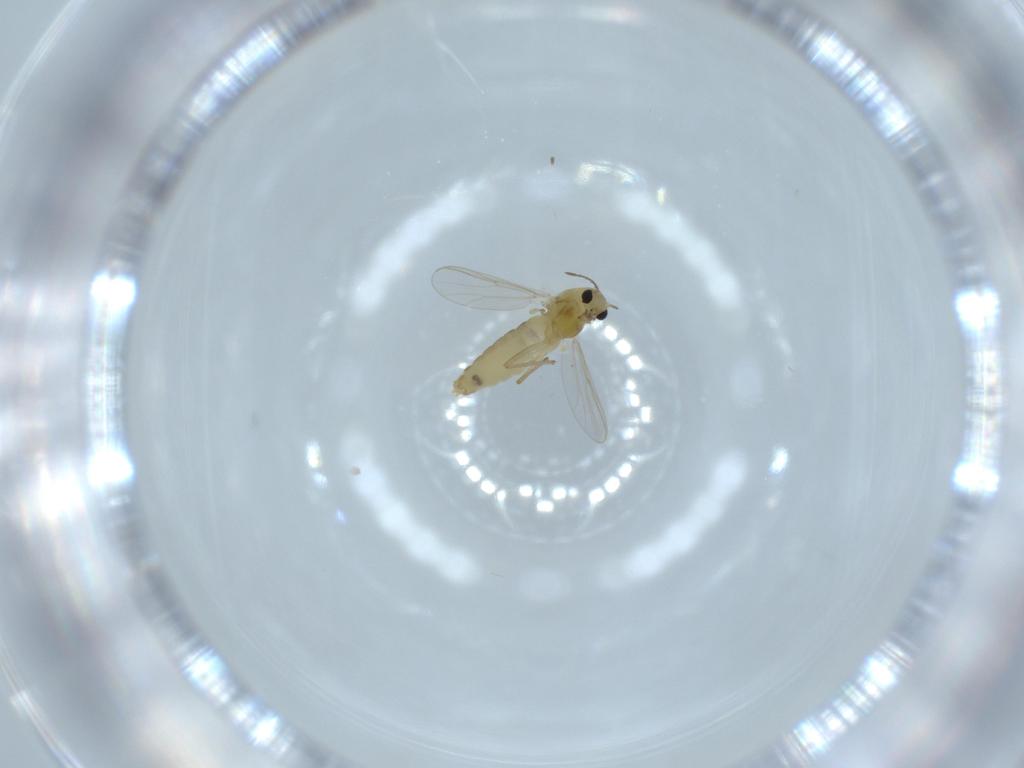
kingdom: Animalia
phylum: Arthropoda
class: Insecta
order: Diptera
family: Chironomidae
